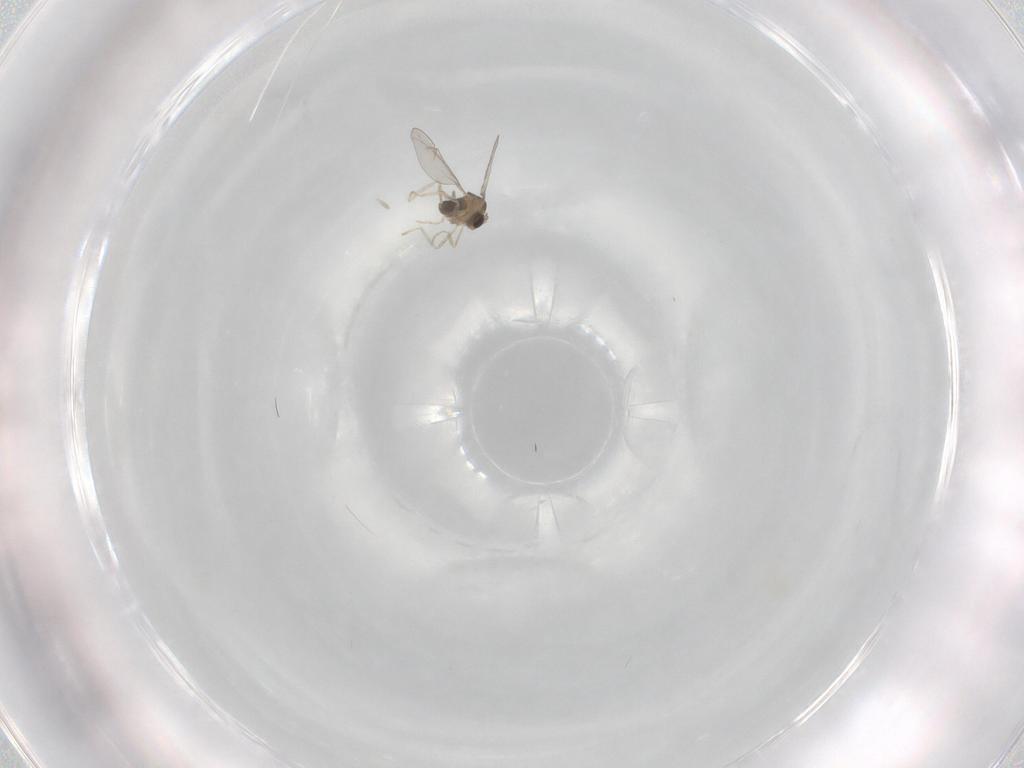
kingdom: Animalia
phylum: Arthropoda
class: Insecta
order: Diptera
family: Cecidomyiidae
